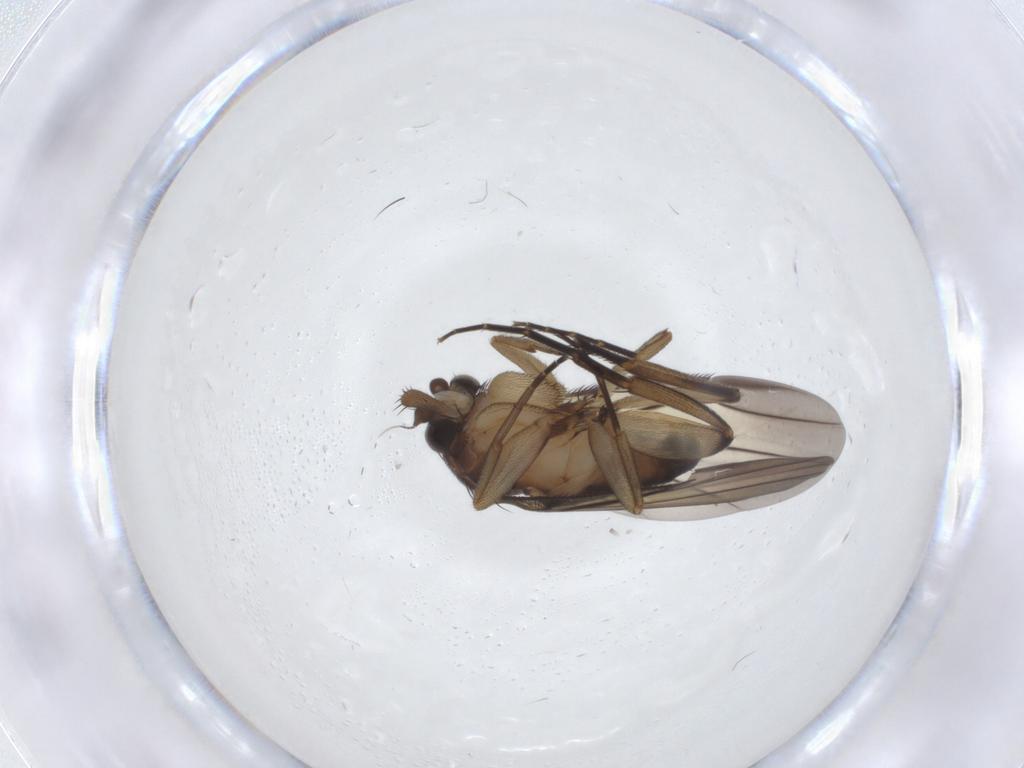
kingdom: Animalia
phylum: Arthropoda
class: Insecta
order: Diptera
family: Phoridae
